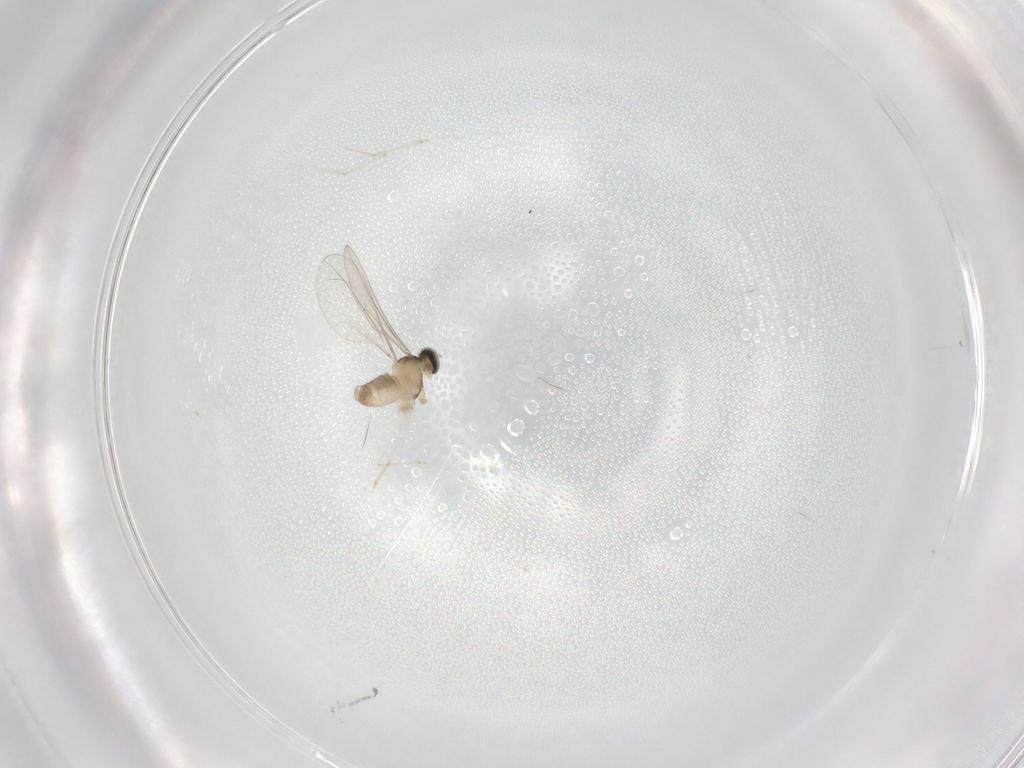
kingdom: Animalia
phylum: Arthropoda
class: Insecta
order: Diptera
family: Cecidomyiidae
